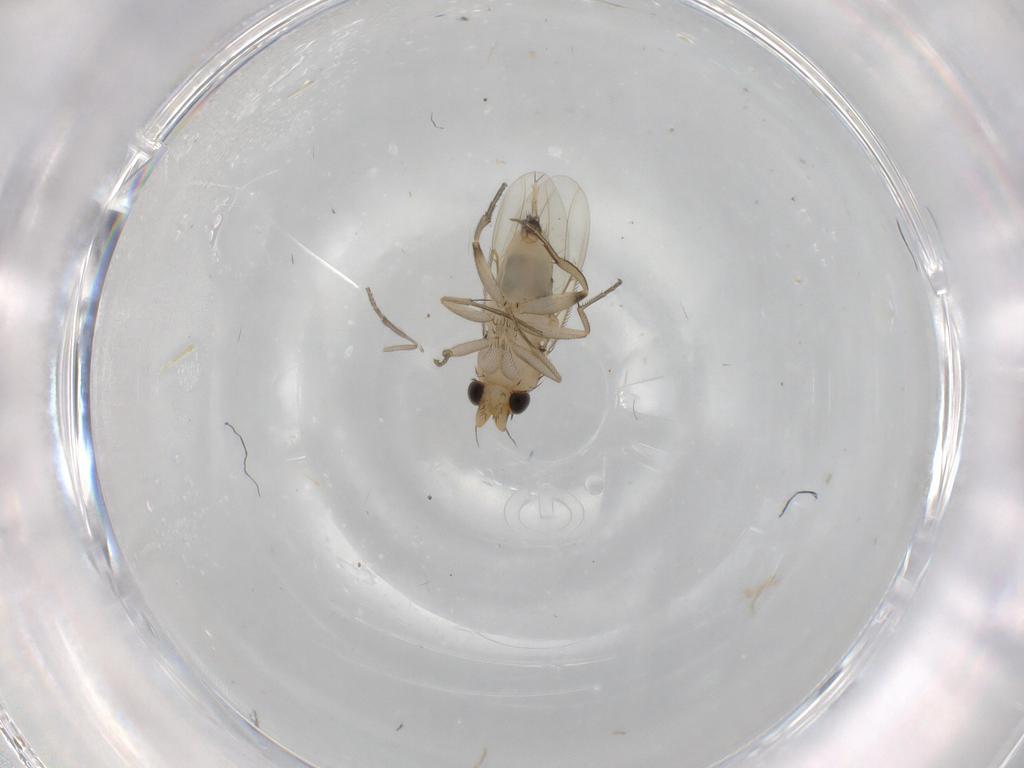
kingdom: Animalia
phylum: Arthropoda
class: Insecta
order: Diptera
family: Phoridae
